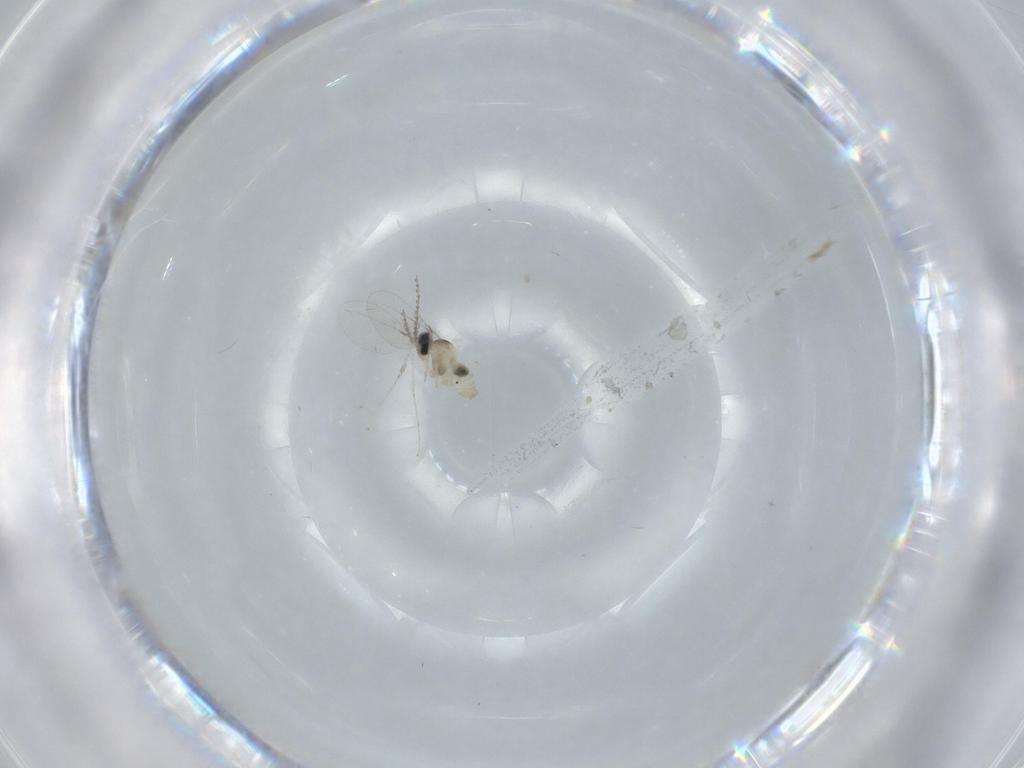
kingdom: Animalia
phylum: Arthropoda
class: Insecta
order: Diptera
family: Cecidomyiidae
